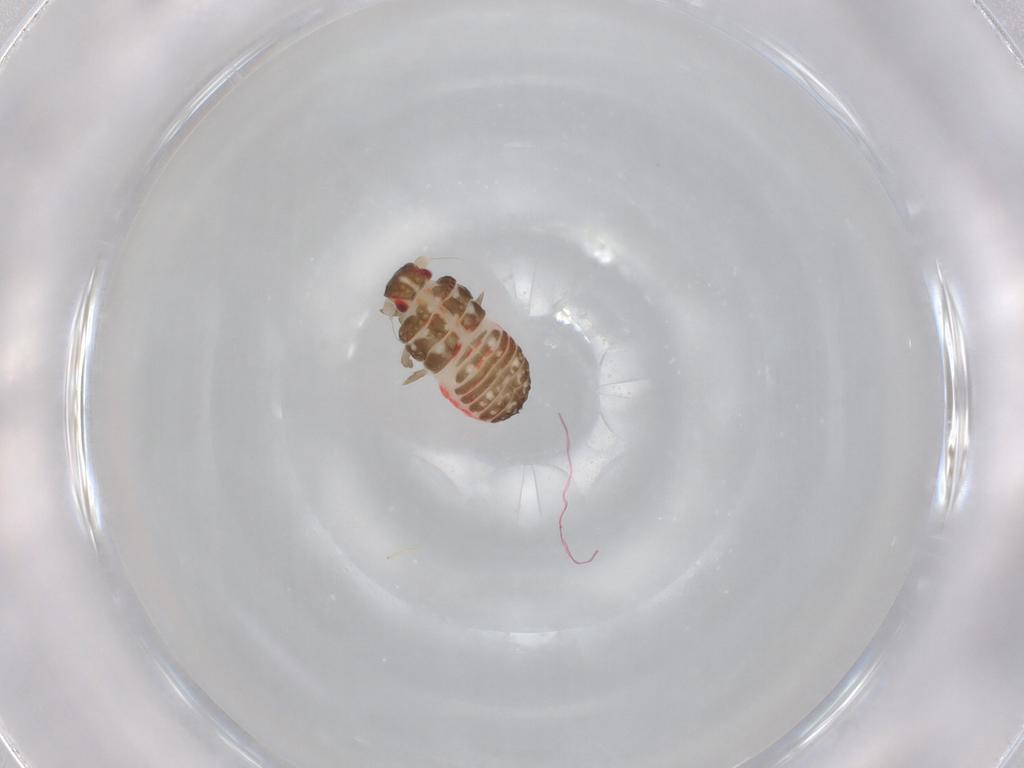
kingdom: Animalia
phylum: Arthropoda
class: Insecta
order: Hemiptera
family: Achilidae
